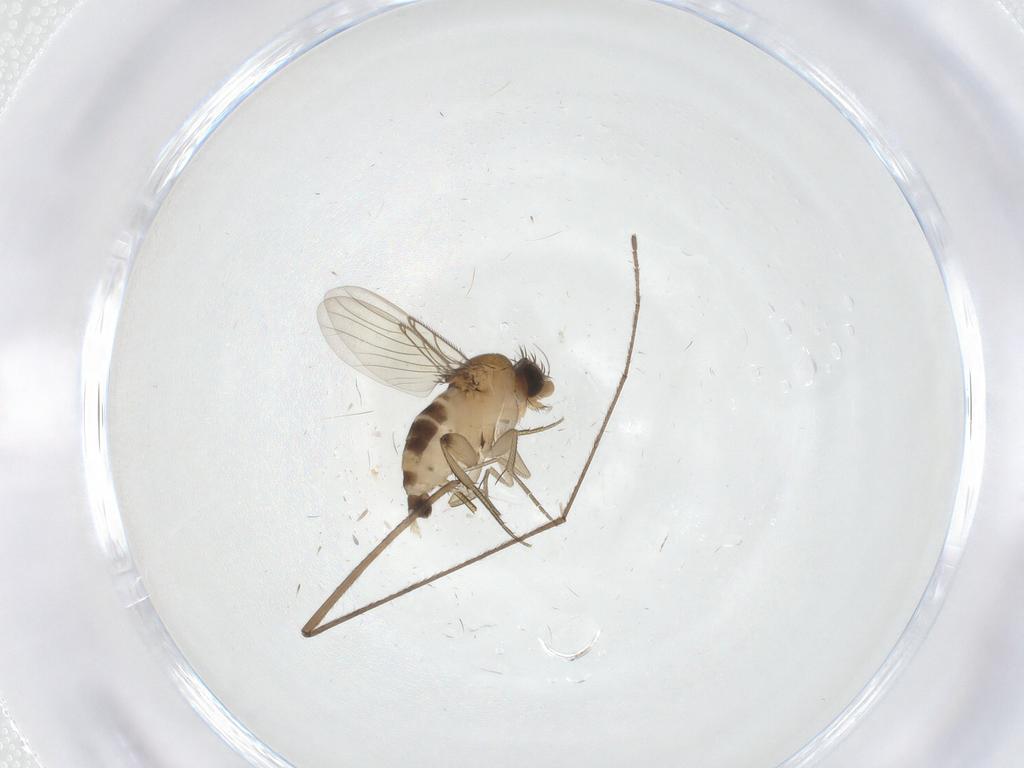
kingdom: Animalia
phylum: Arthropoda
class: Insecta
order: Diptera
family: Phoridae
